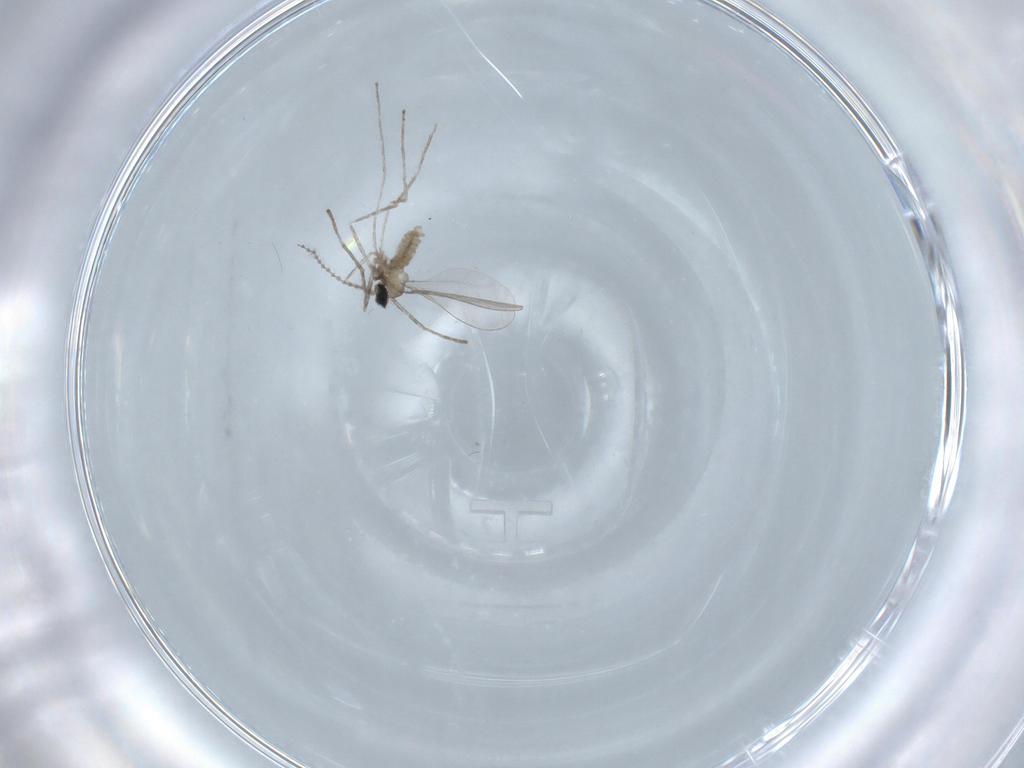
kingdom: Animalia
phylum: Arthropoda
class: Insecta
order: Diptera
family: Cecidomyiidae
